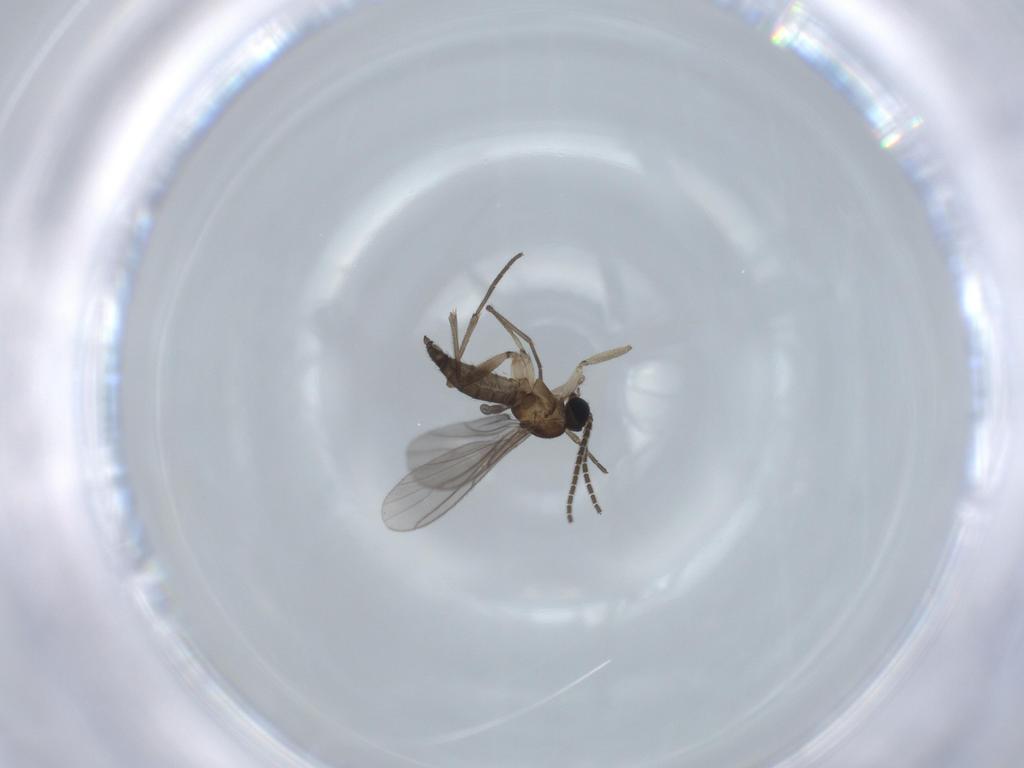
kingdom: Animalia
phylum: Arthropoda
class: Insecta
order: Diptera
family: Sciaridae
